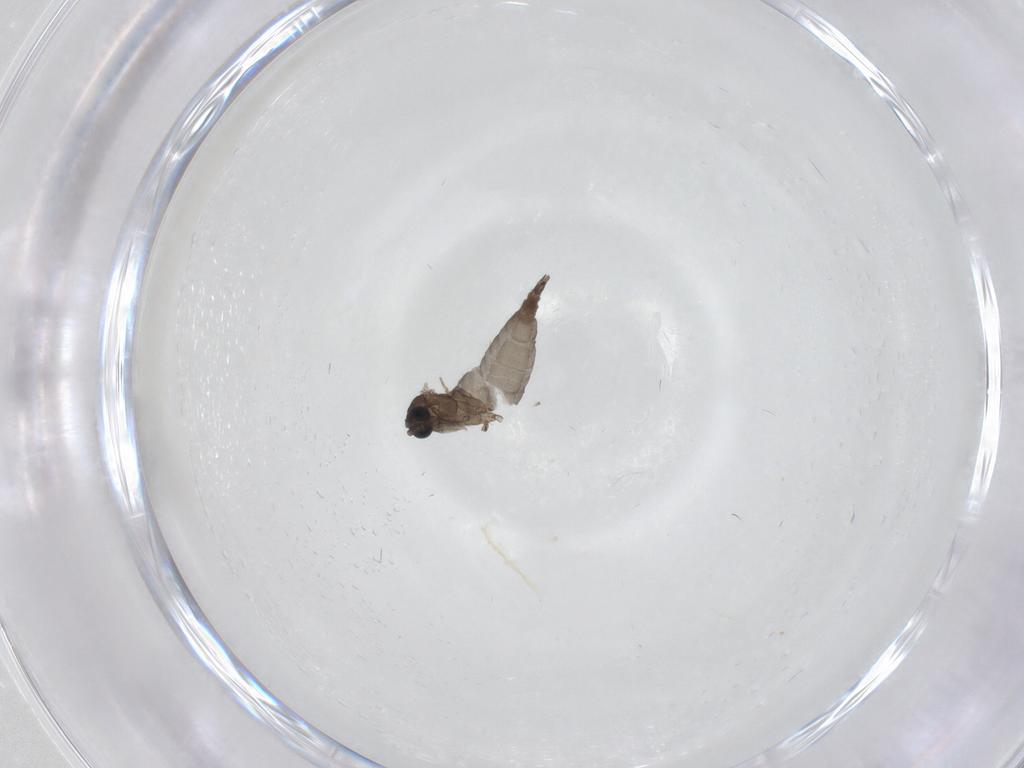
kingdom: Animalia
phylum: Arthropoda
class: Insecta
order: Diptera
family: Sciaridae
